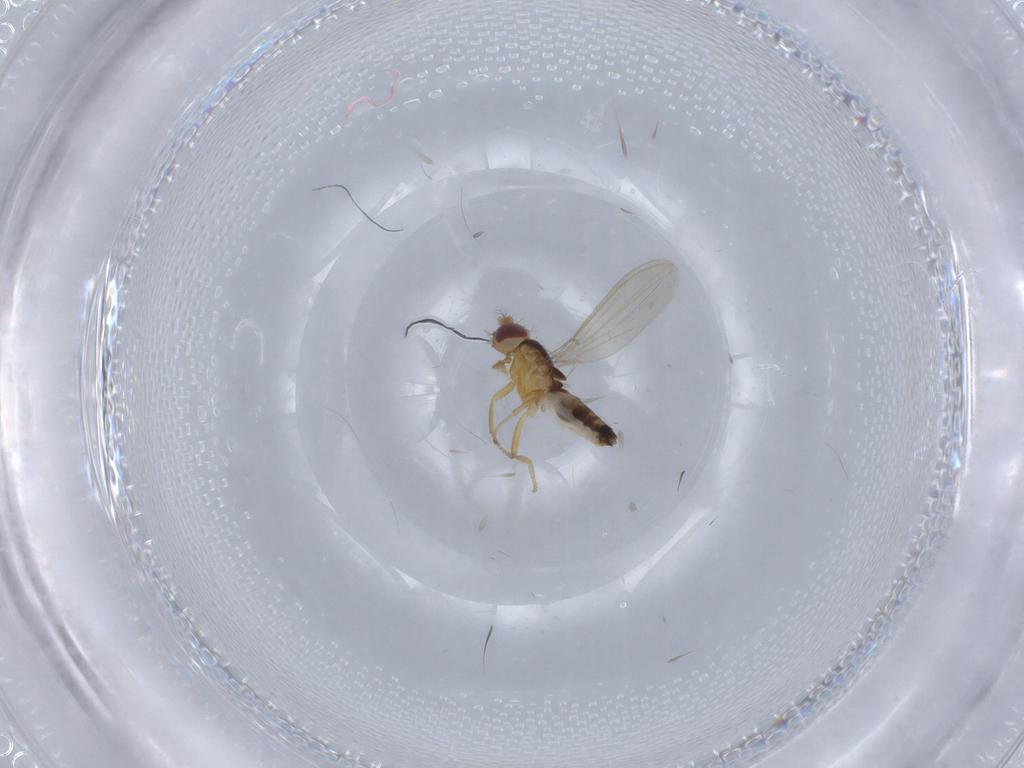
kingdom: Animalia
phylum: Arthropoda
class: Insecta
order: Diptera
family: Periscelididae
